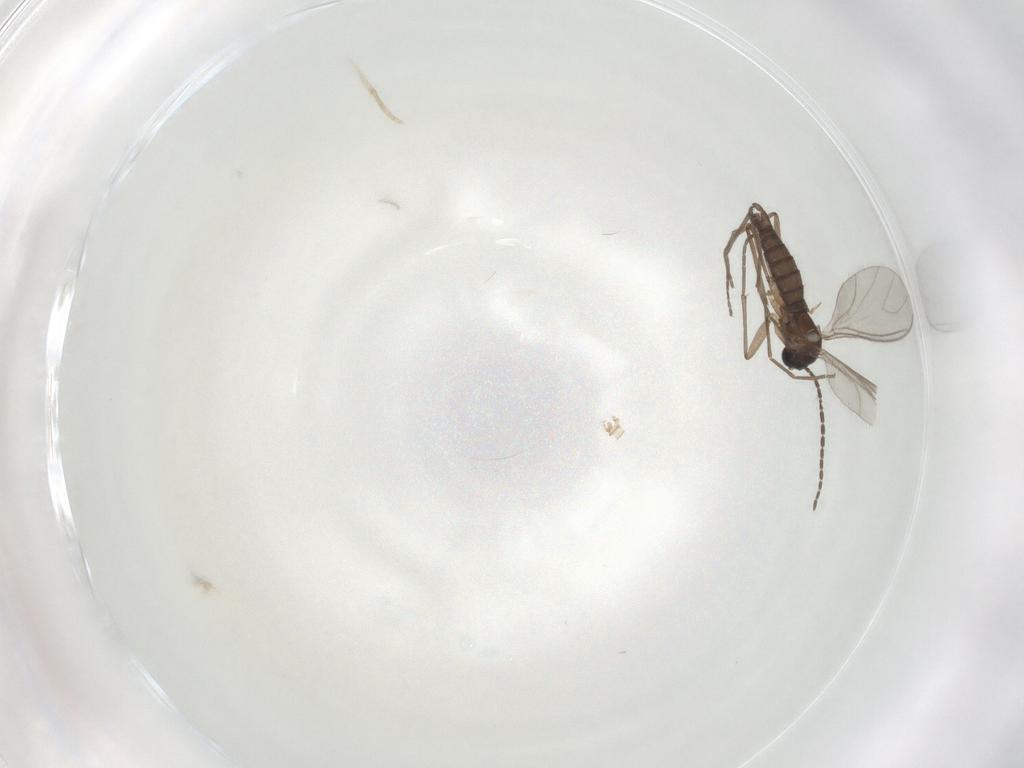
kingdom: Animalia
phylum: Arthropoda
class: Insecta
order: Diptera
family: Sciaridae
